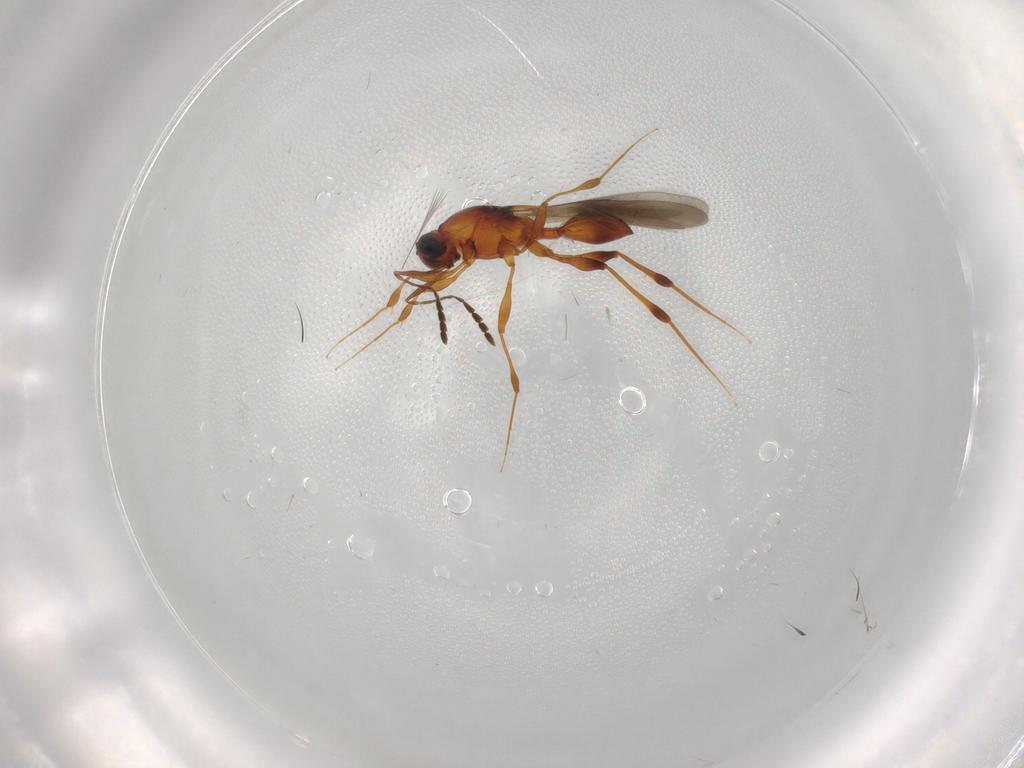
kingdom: Animalia
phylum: Arthropoda
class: Insecta
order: Hymenoptera
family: Platygastridae
